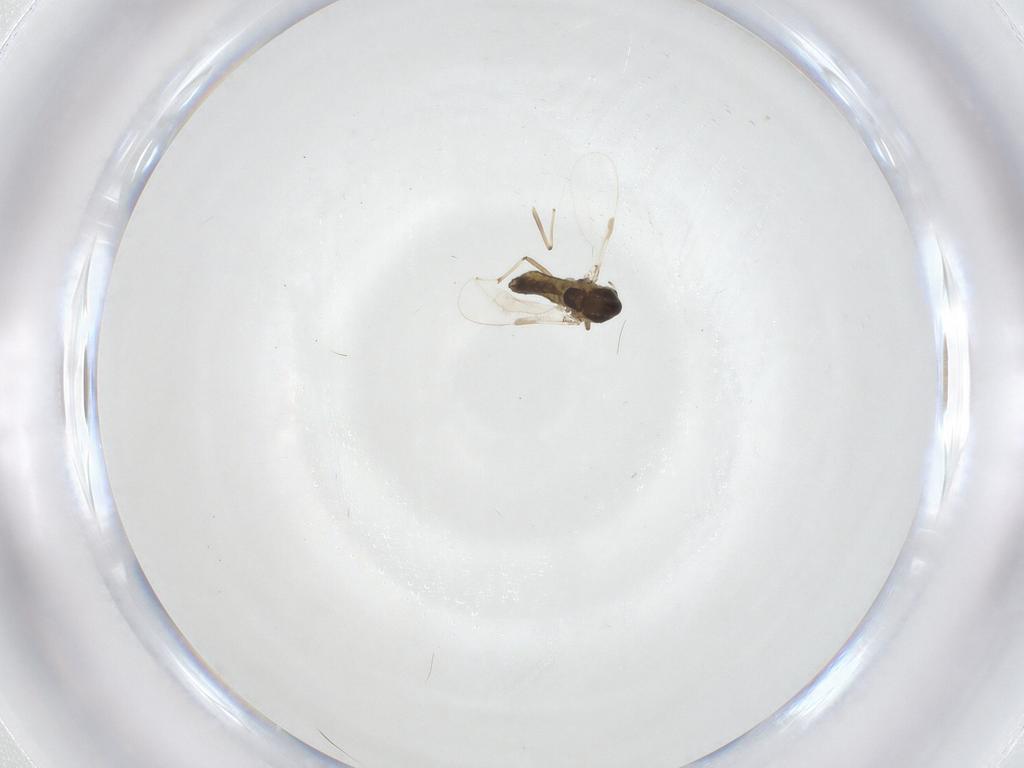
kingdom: Animalia
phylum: Arthropoda
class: Insecta
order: Diptera
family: Chironomidae
